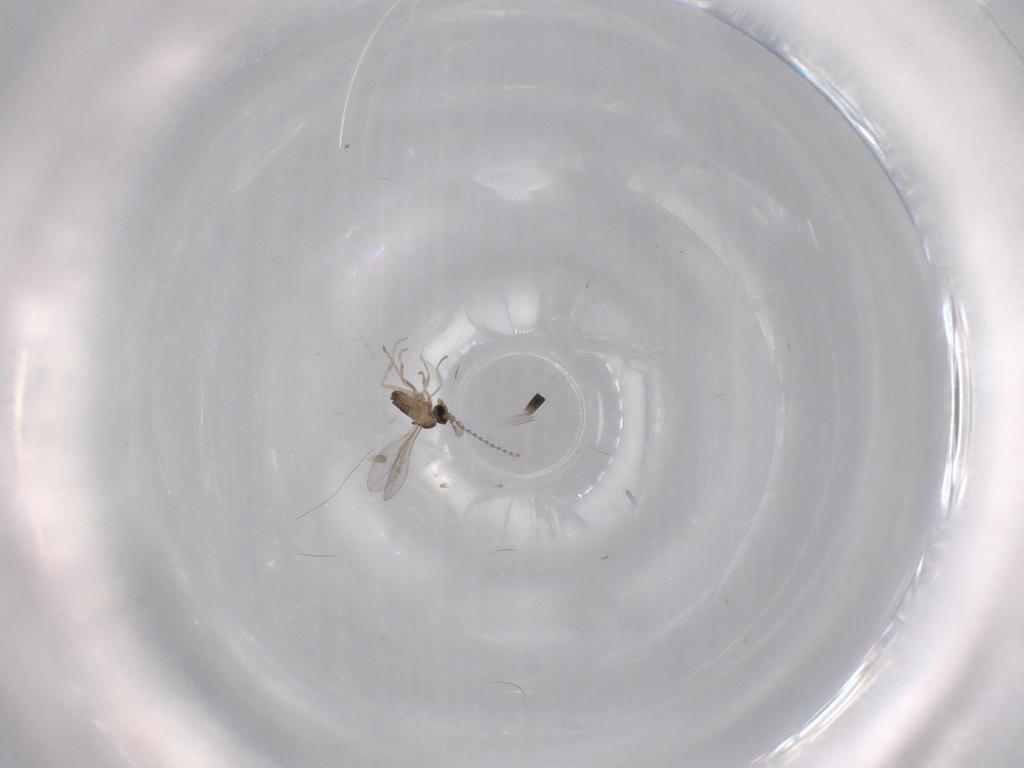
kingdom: Animalia
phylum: Arthropoda
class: Insecta
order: Diptera
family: Cecidomyiidae
